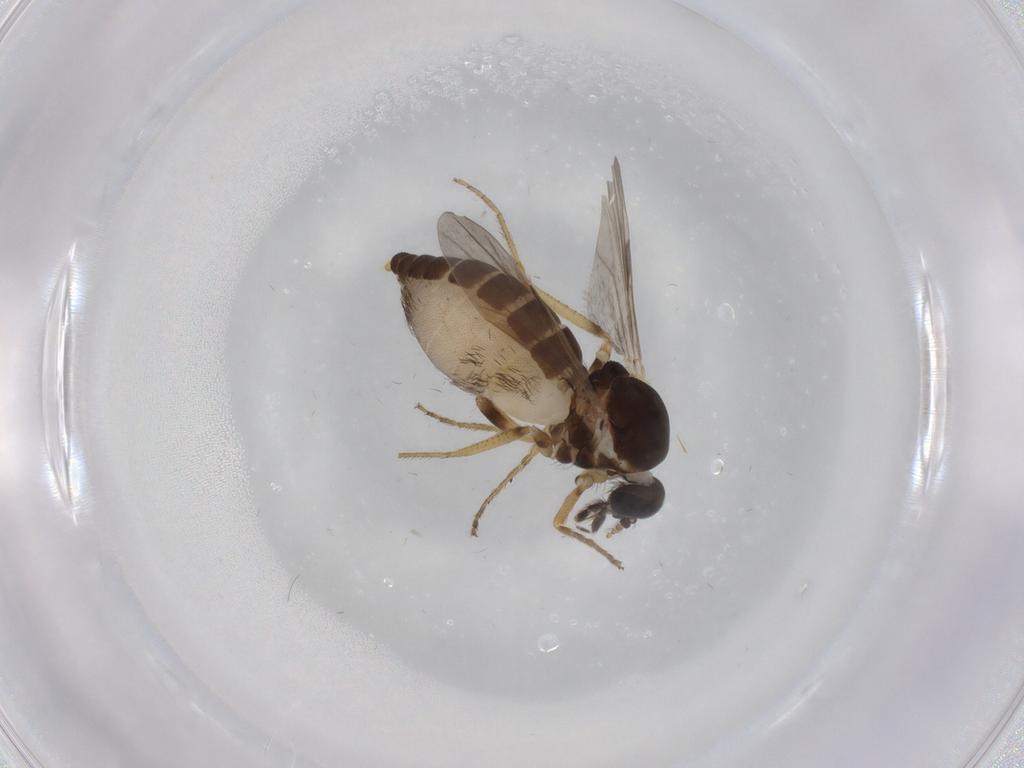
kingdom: Animalia
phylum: Arthropoda
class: Insecta
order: Diptera
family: Ceratopogonidae
